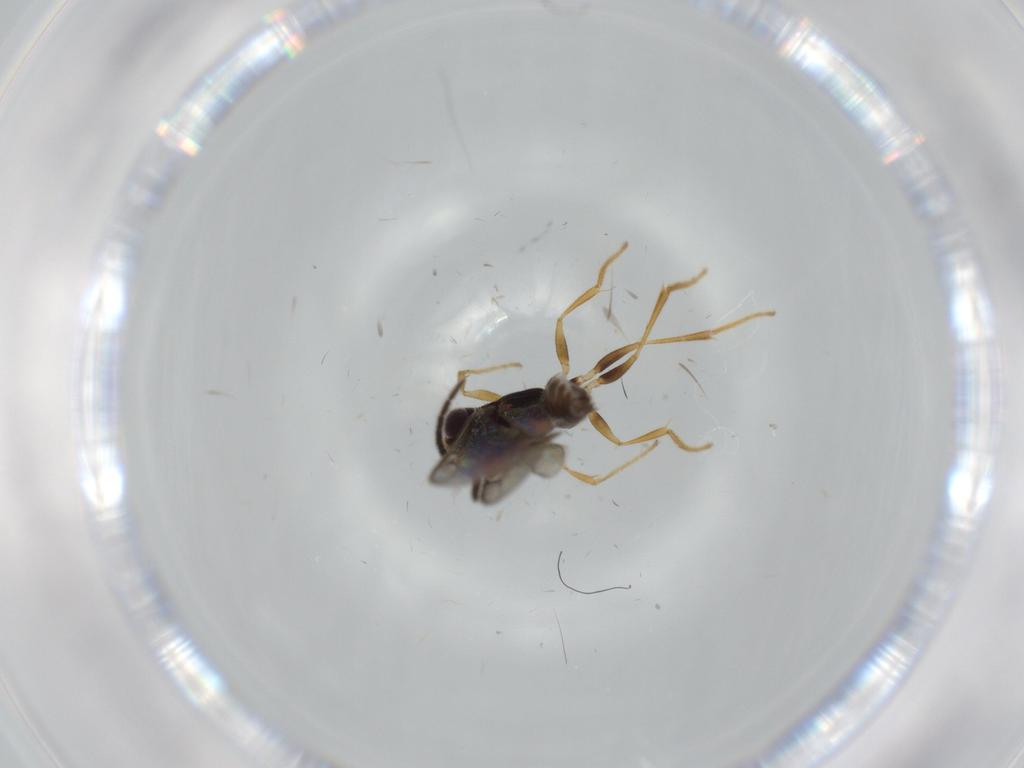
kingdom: Animalia
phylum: Arthropoda
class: Insecta
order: Hymenoptera
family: Dryinidae
